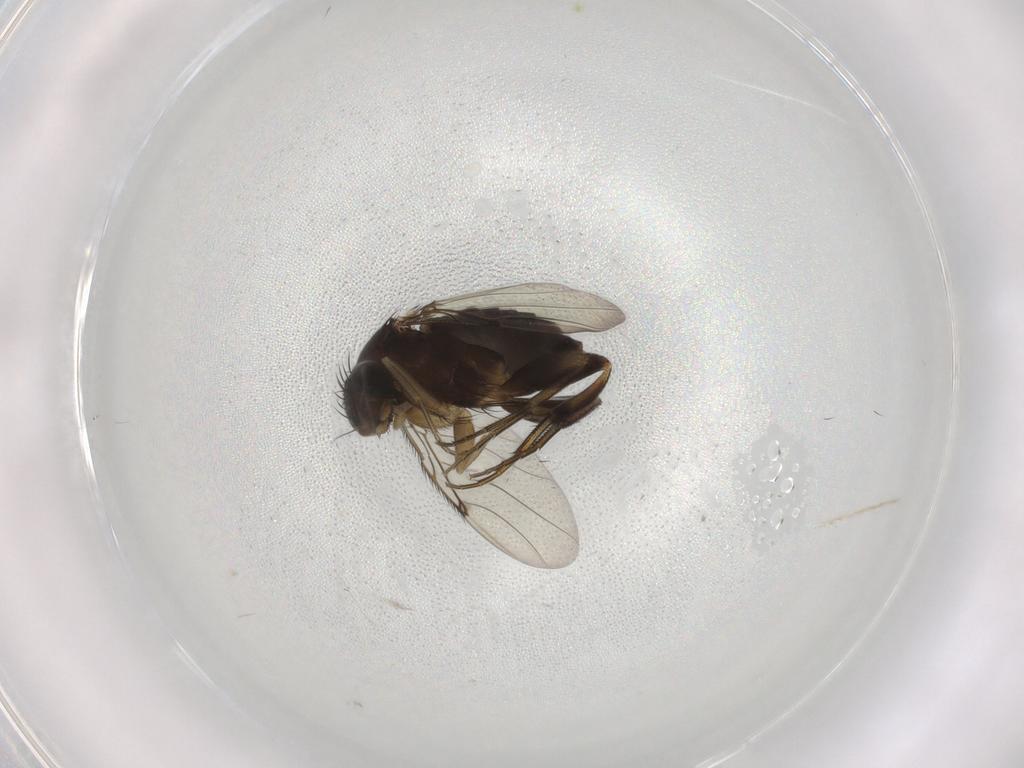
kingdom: Animalia
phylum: Arthropoda
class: Insecta
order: Diptera
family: Phoridae
